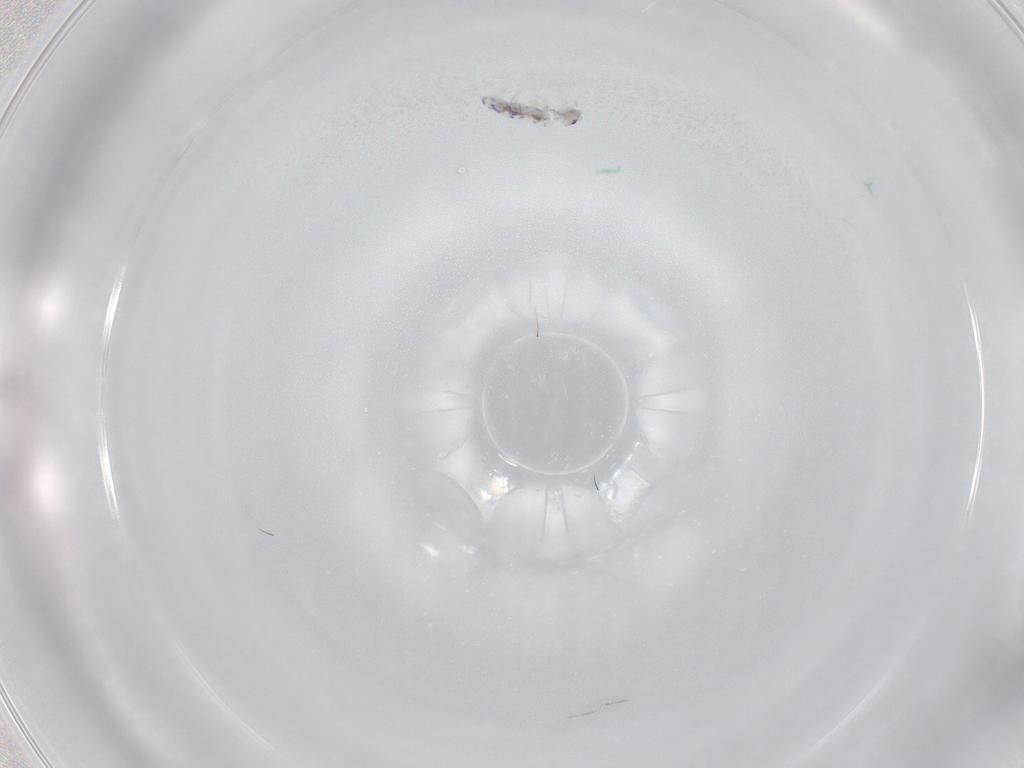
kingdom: Animalia
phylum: Arthropoda
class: Collembola
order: Entomobryomorpha
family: Entomobryidae
